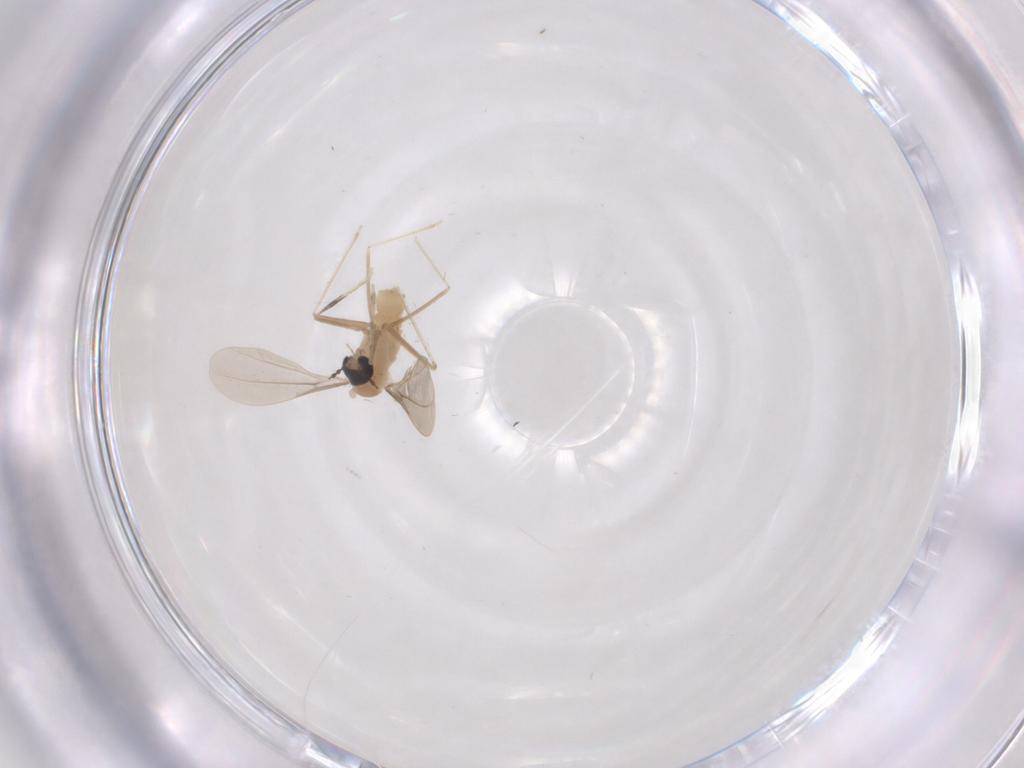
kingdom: Animalia
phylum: Arthropoda
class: Insecta
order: Diptera
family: Cecidomyiidae
